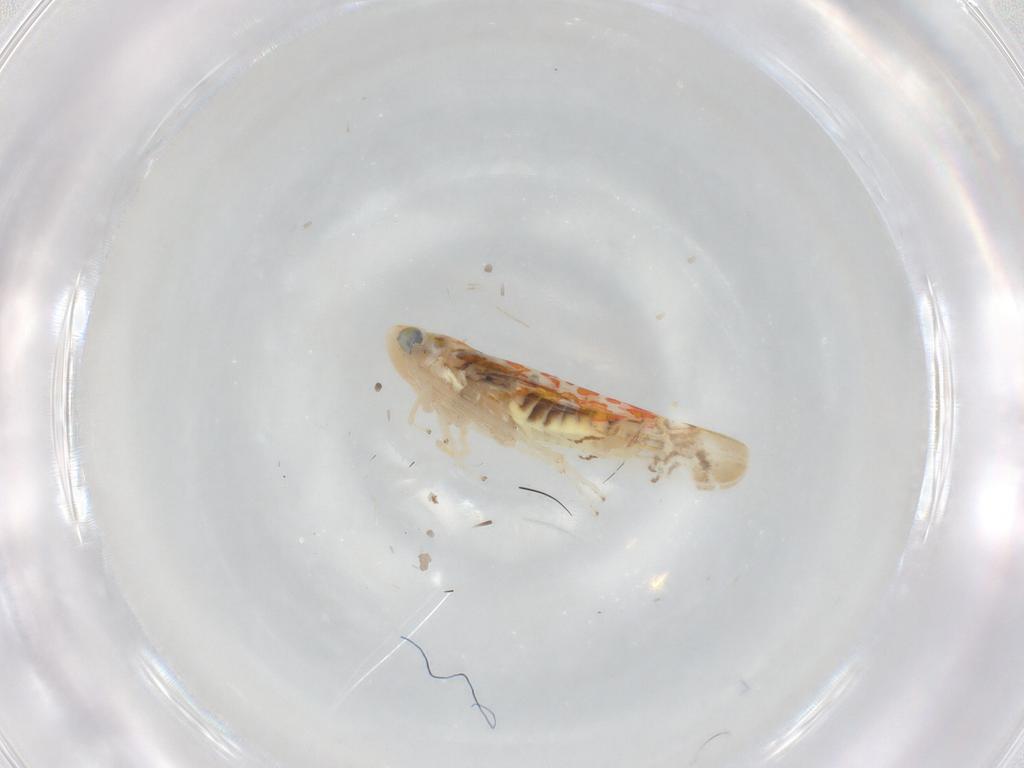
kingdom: Animalia
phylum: Arthropoda
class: Insecta
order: Hemiptera
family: Cicadellidae
